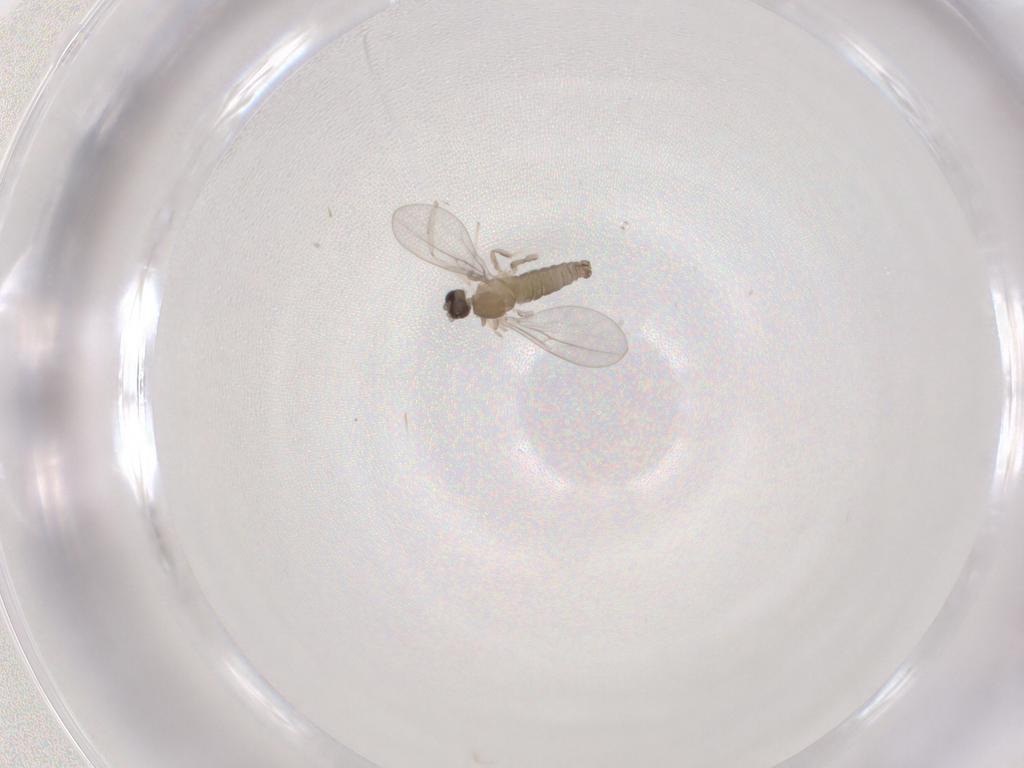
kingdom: Animalia
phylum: Arthropoda
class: Insecta
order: Diptera
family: Cecidomyiidae
